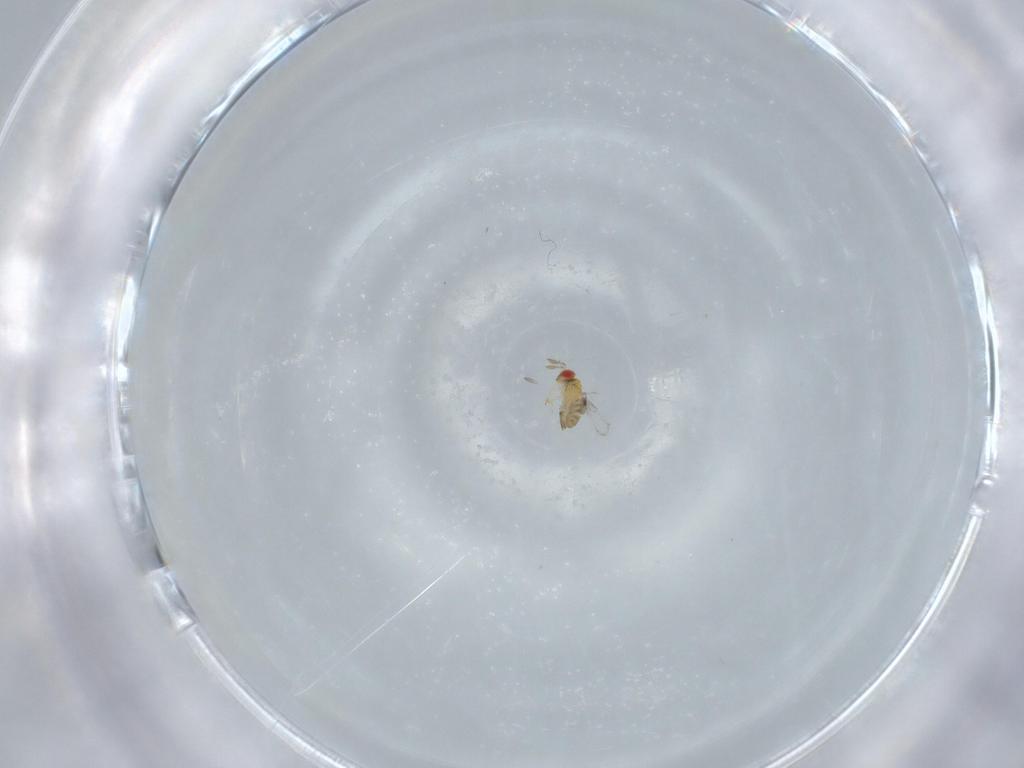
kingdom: Animalia
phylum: Arthropoda
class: Insecta
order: Hymenoptera
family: Trichogrammatidae
